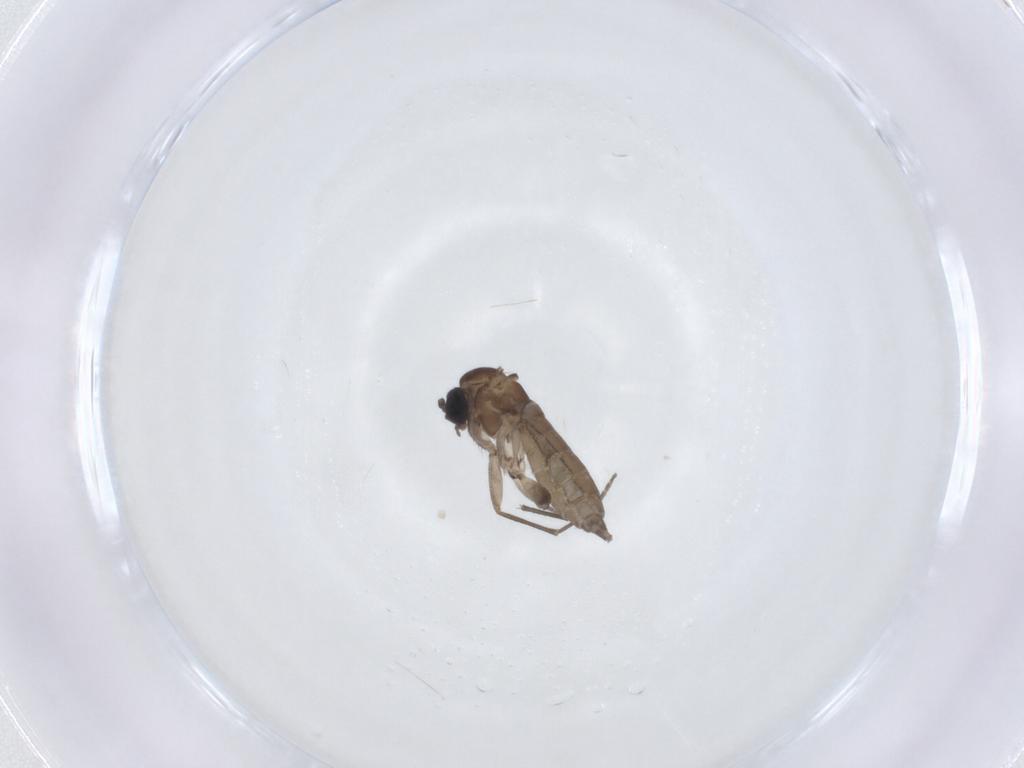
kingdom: Animalia
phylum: Arthropoda
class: Insecta
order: Diptera
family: Sciaridae
